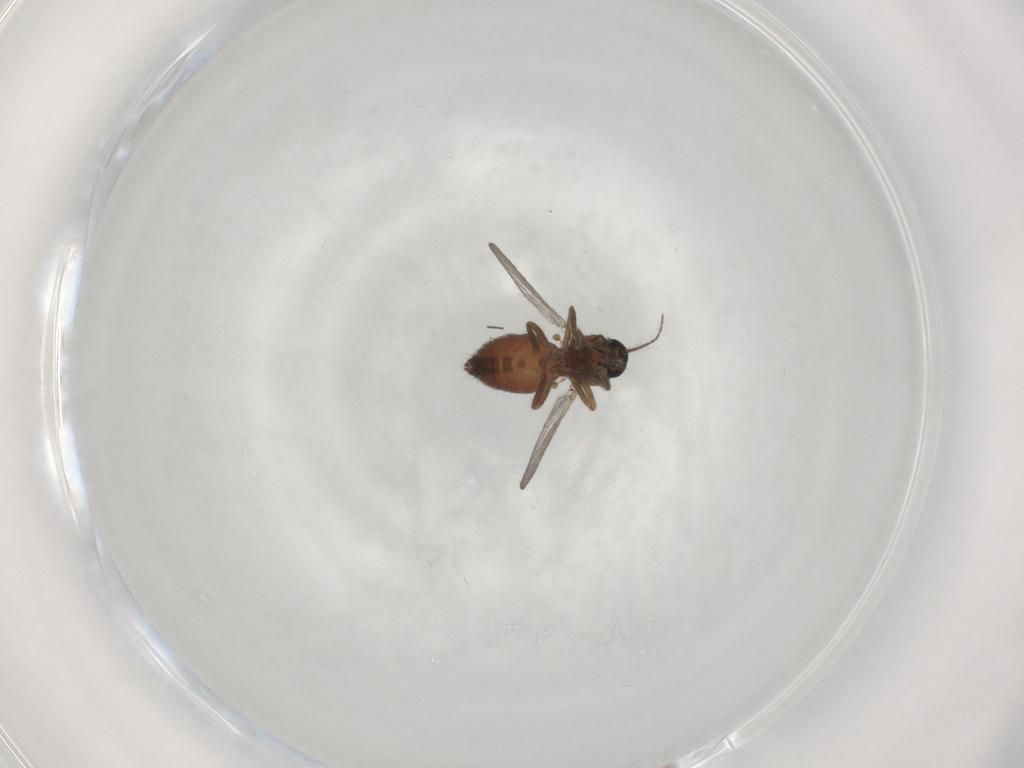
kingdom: Animalia
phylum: Arthropoda
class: Insecta
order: Diptera
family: Ceratopogonidae
